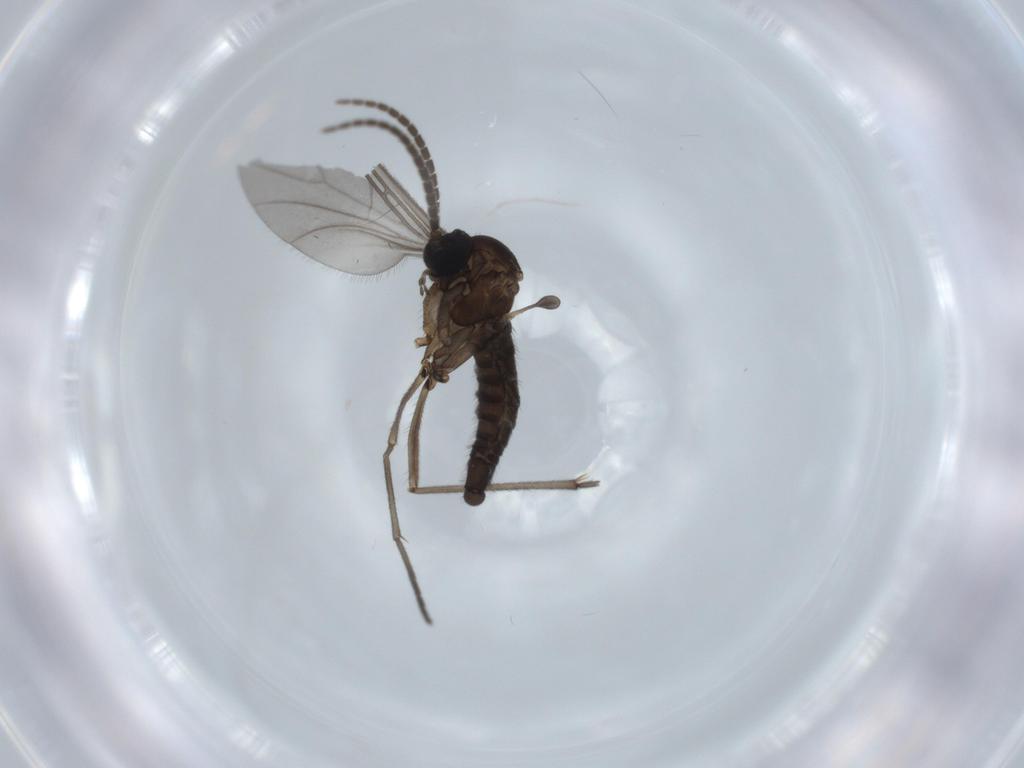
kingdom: Animalia
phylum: Arthropoda
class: Insecta
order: Diptera
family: Sciaridae
